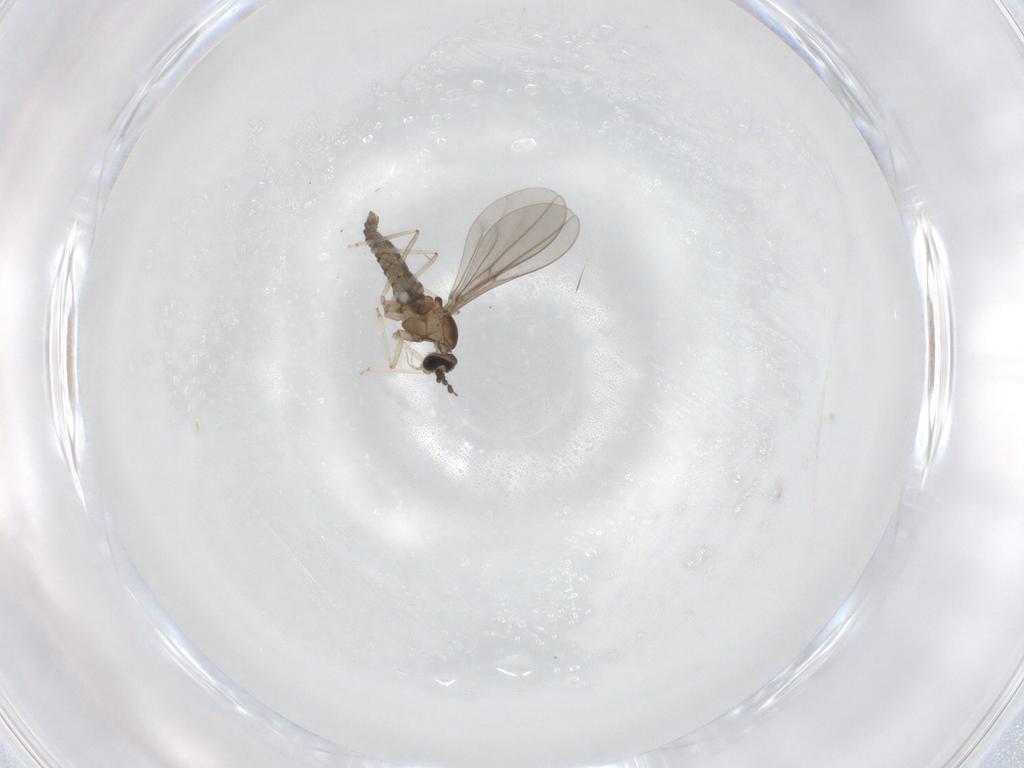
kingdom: Animalia
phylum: Arthropoda
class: Insecta
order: Diptera
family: Cecidomyiidae
